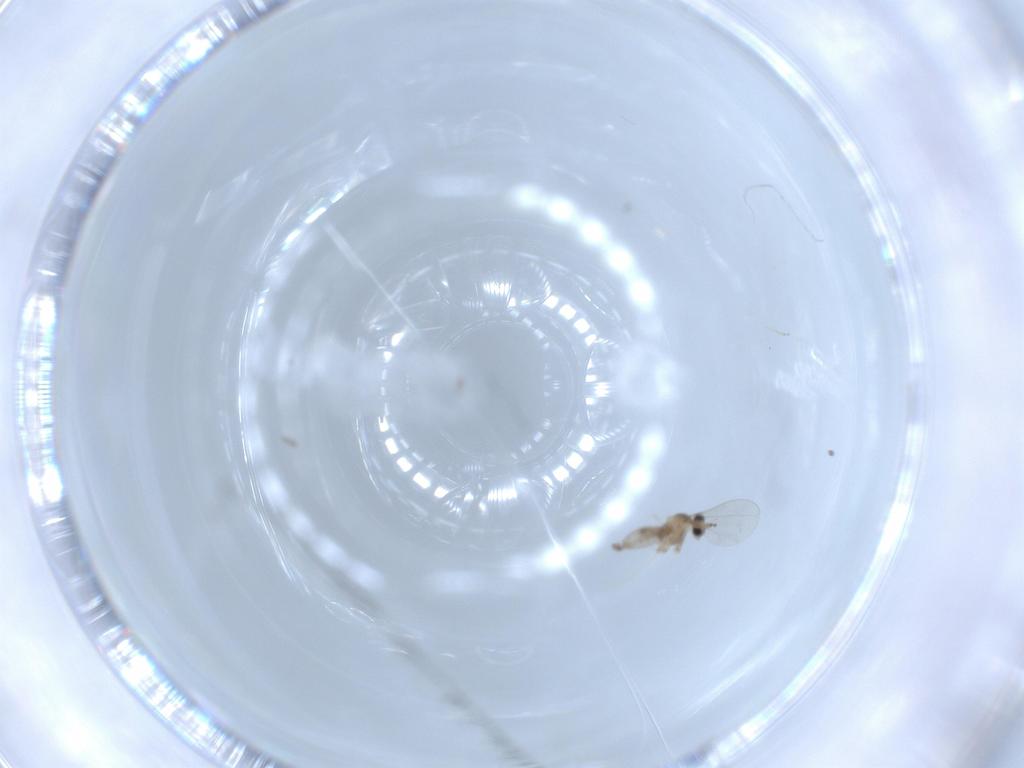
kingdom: Animalia
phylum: Arthropoda
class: Insecta
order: Diptera
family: Cecidomyiidae
